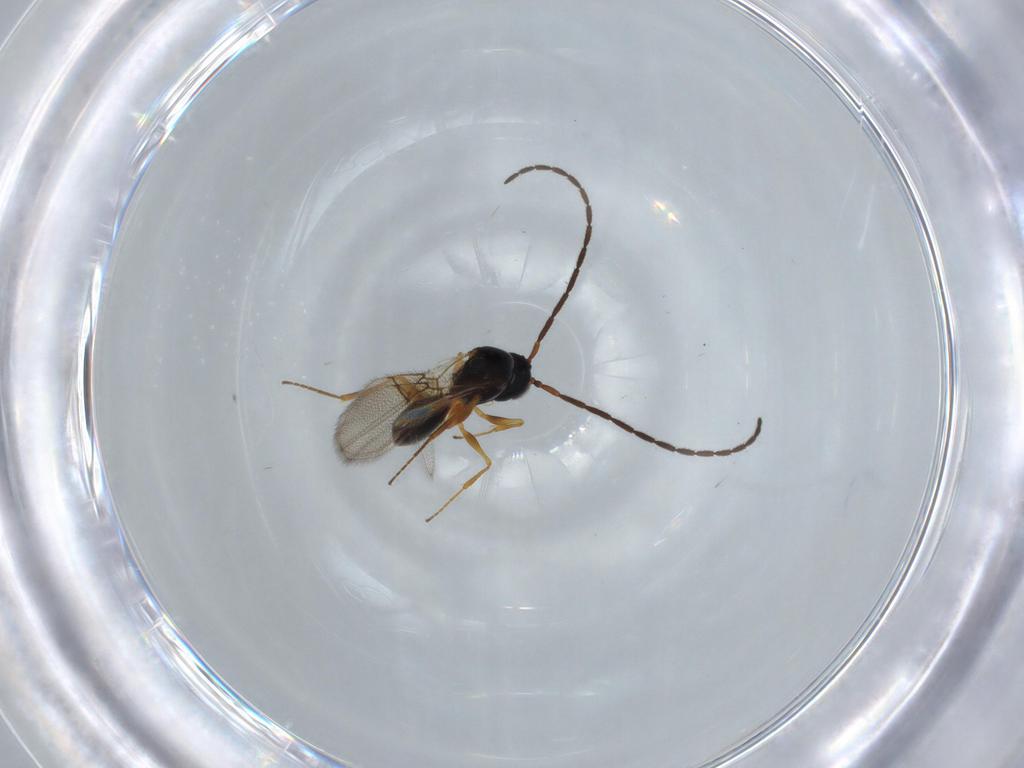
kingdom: Animalia
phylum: Arthropoda
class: Insecta
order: Hymenoptera
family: Figitidae
